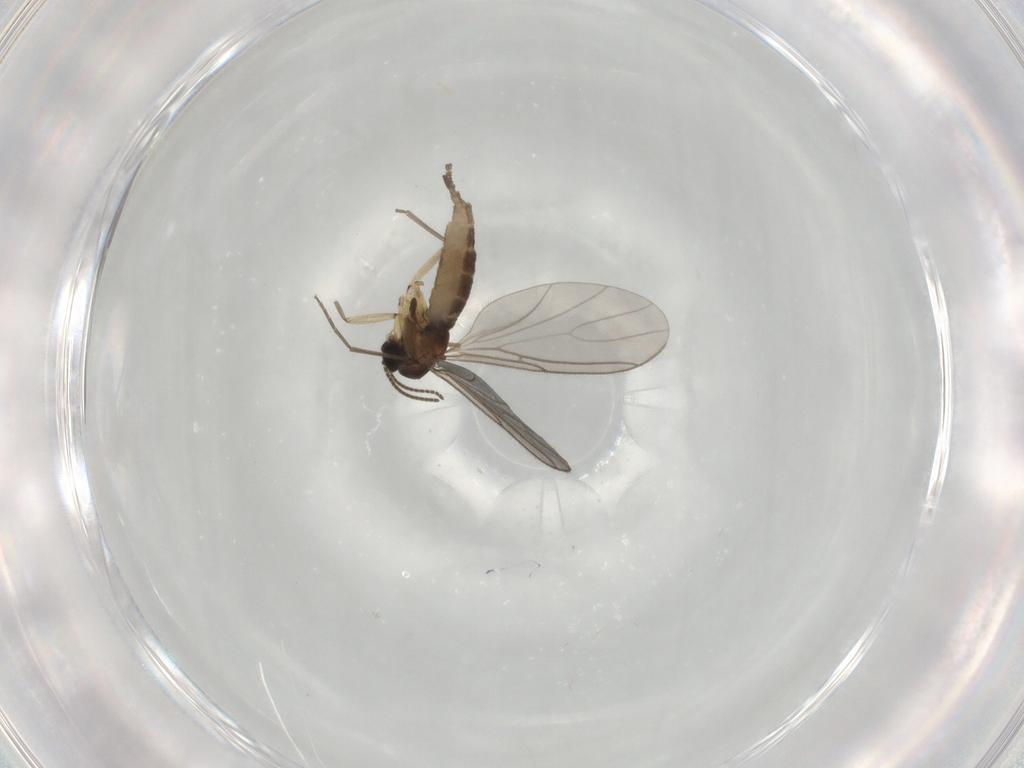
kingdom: Animalia
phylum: Arthropoda
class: Insecta
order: Diptera
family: Sciaridae
